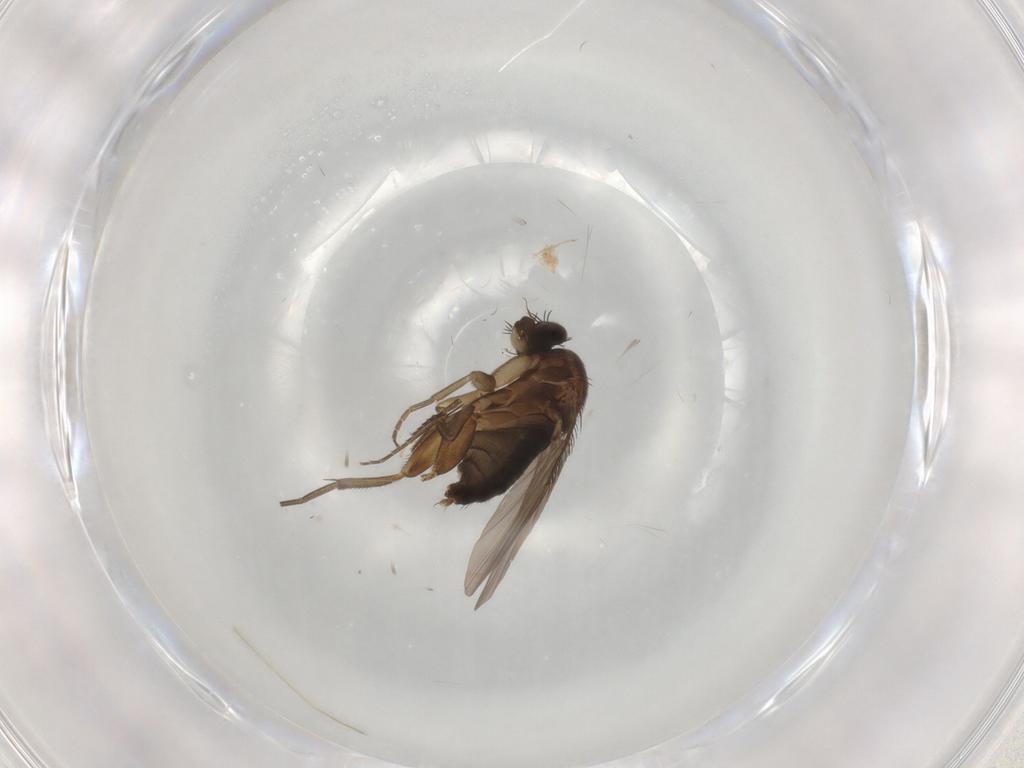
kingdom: Animalia
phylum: Arthropoda
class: Insecta
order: Diptera
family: Phoridae
